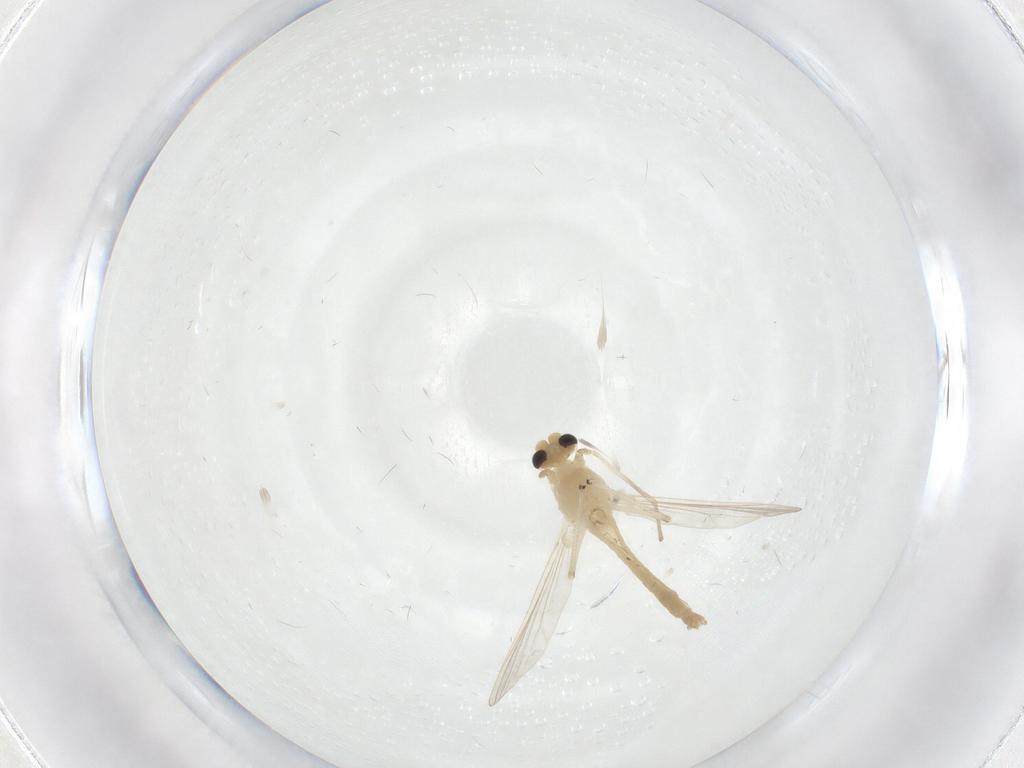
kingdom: Animalia
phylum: Arthropoda
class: Insecta
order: Diptera
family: Chironomidae
